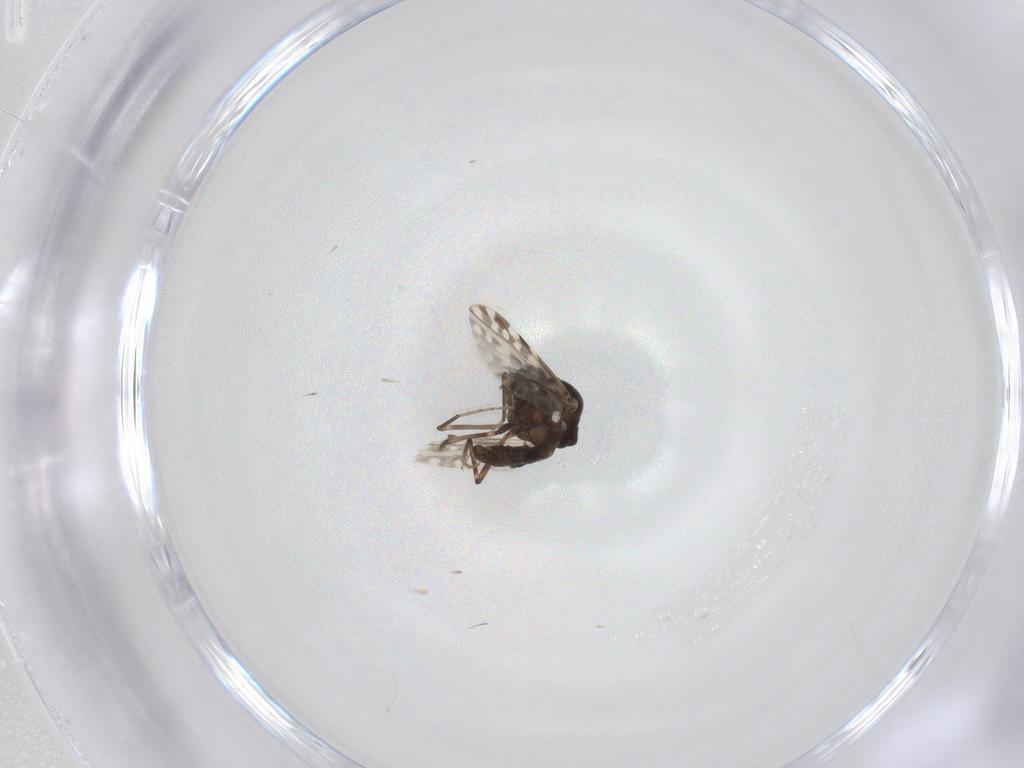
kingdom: Animalia
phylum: Arthropoda
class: Insecta
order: Diptera
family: Ceratopogonidae
